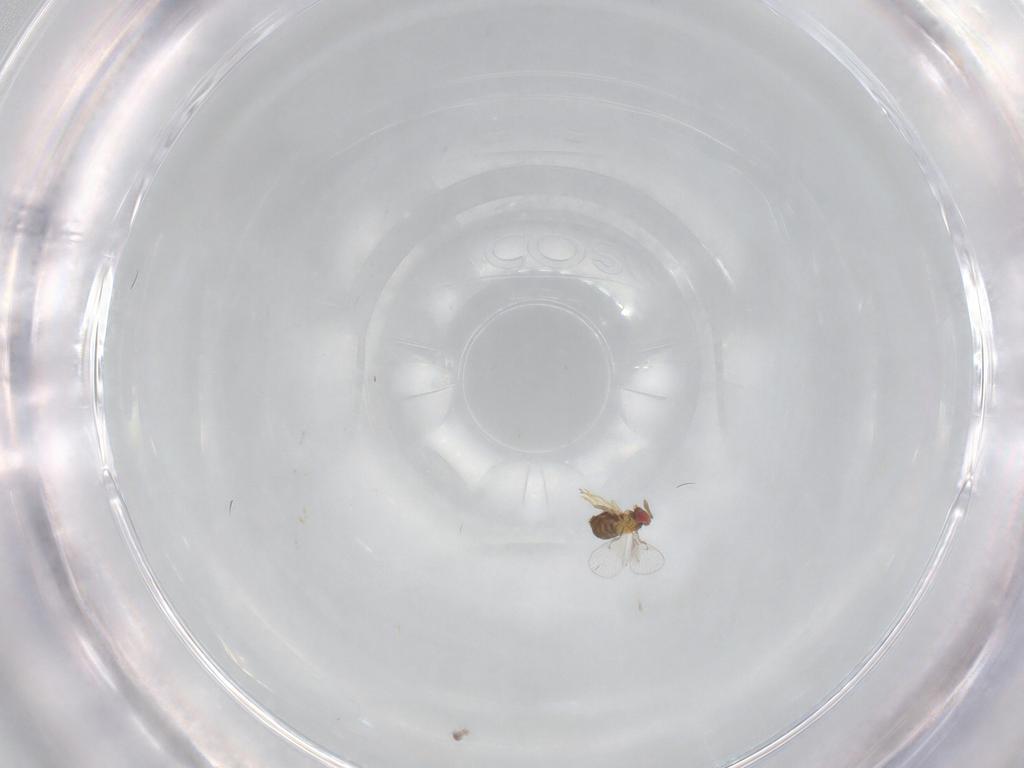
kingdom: Animalia
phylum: Arthropoda
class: Insecta
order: Hymenoptera
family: Trichogrammatidae
